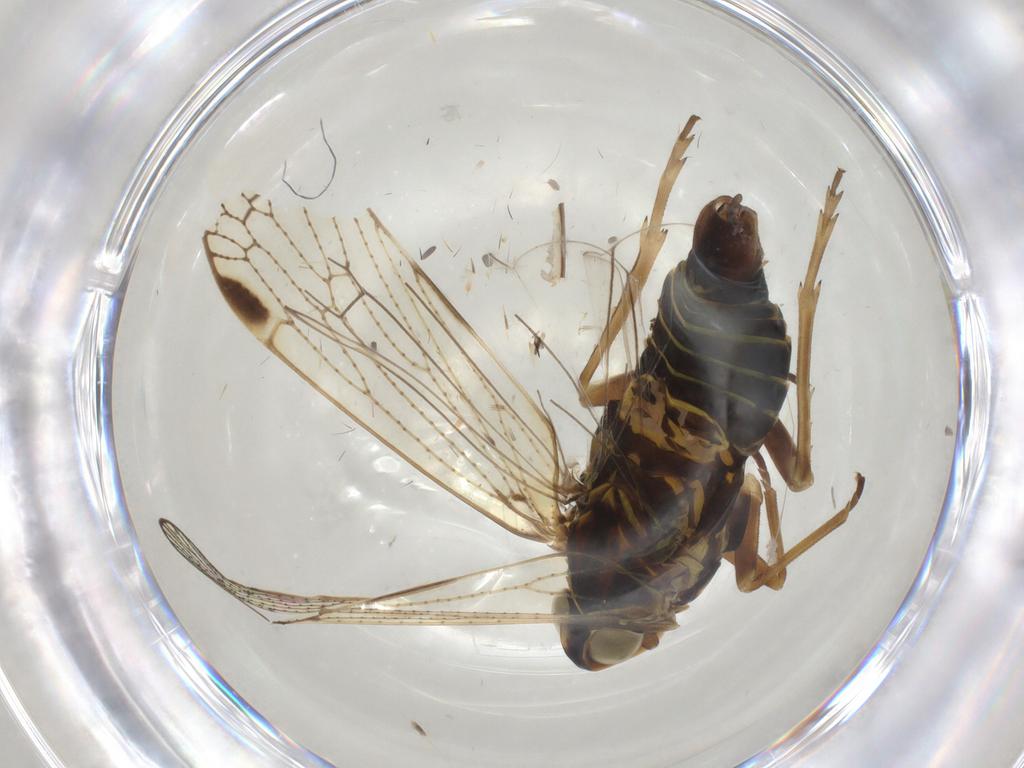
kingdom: Animalia
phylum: Arthropoda
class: Insecta
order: Hemiptera
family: Cixiidae
